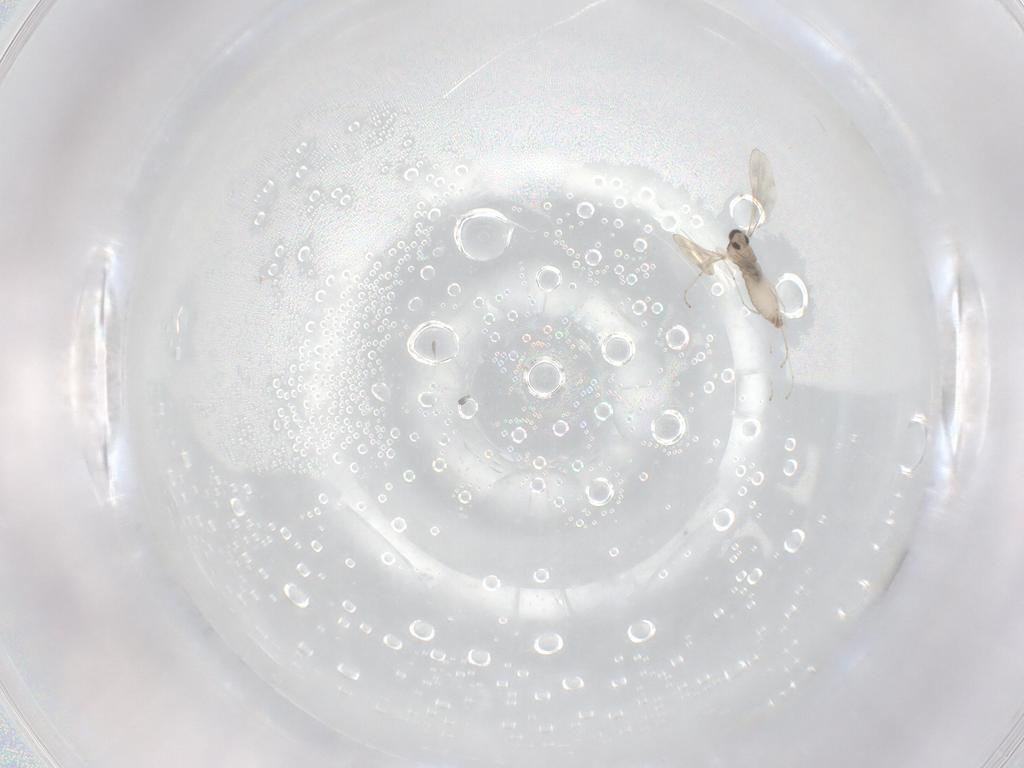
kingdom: Animalia
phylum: Arthropoda
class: Insecta
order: Diptera
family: Cecidomyiidae
